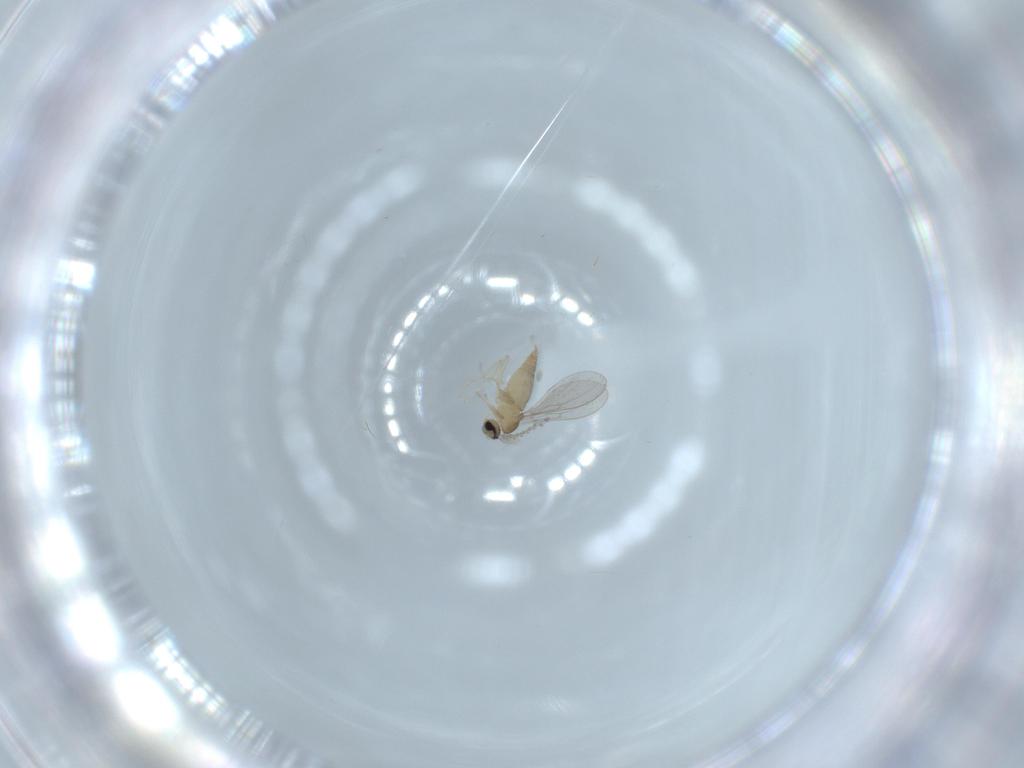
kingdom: Animalia
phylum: Arthropoda
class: Insecta
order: Diptera
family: Cecidomyiidae
